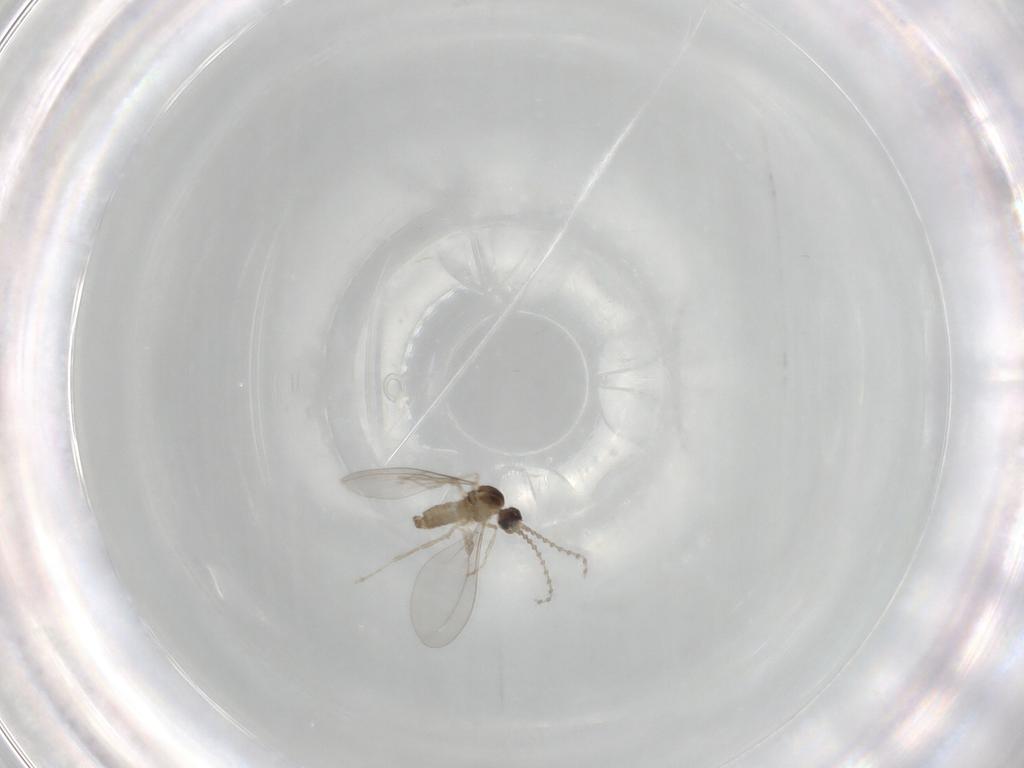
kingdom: Animalia
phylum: Arthropoda
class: Insecta
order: Diptera
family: Cecidomyiidae
